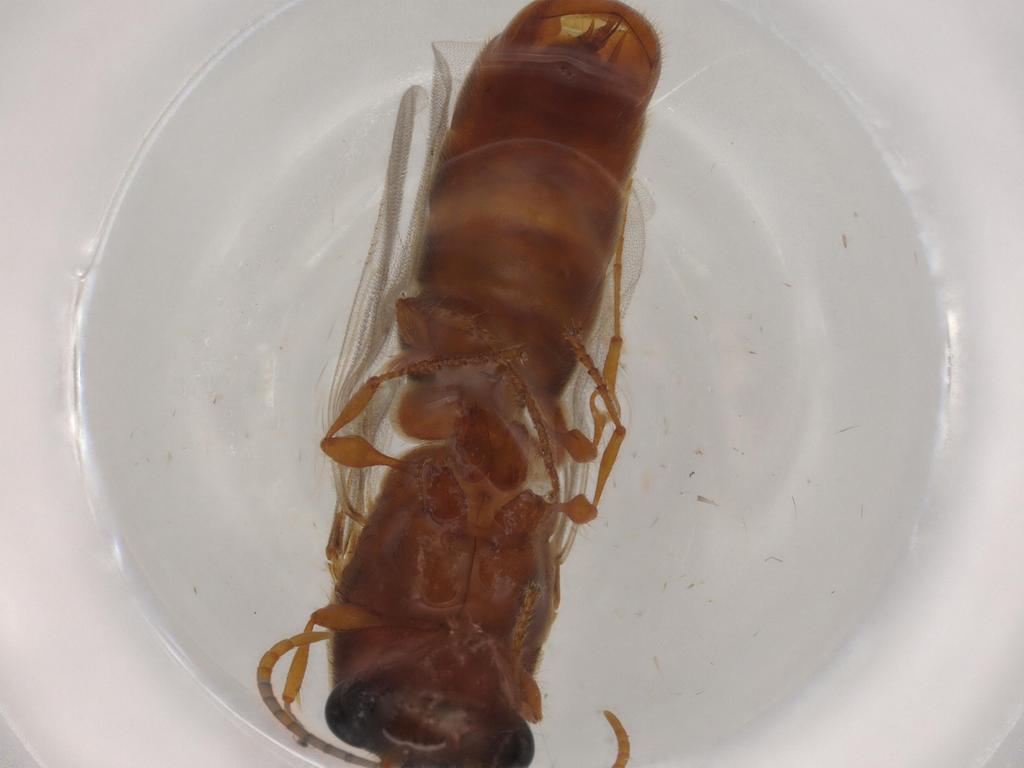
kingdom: Animalia
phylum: Arthropoda
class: Insecta
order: Hymenoptera
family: Formicidae
